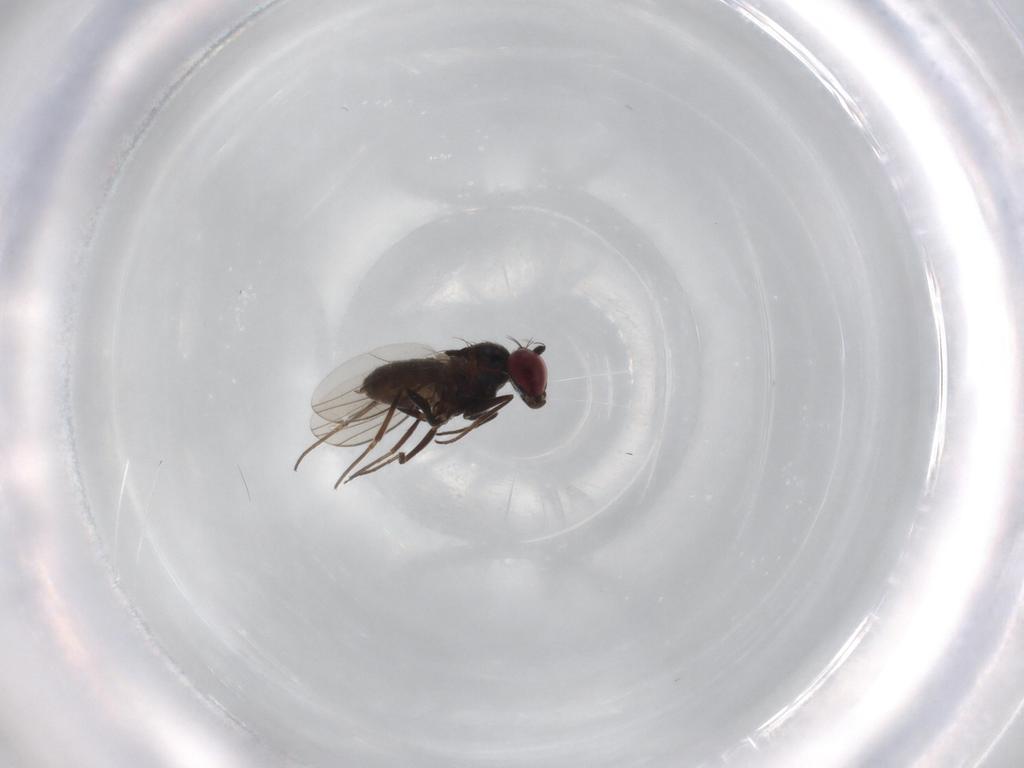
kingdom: Animalia
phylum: Arthropoda
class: Insecta
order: Diptera
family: Dolichopodidae
